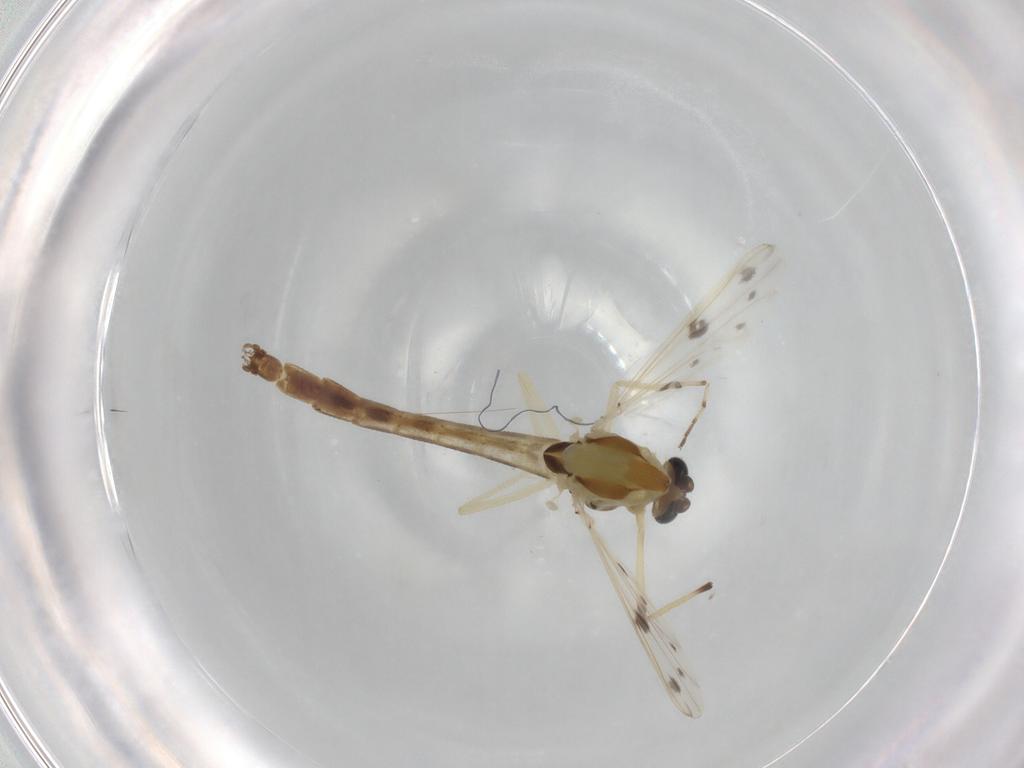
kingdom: Animalia
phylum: Arthropoda
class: Insecta
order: Diptera
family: Chironomidae
